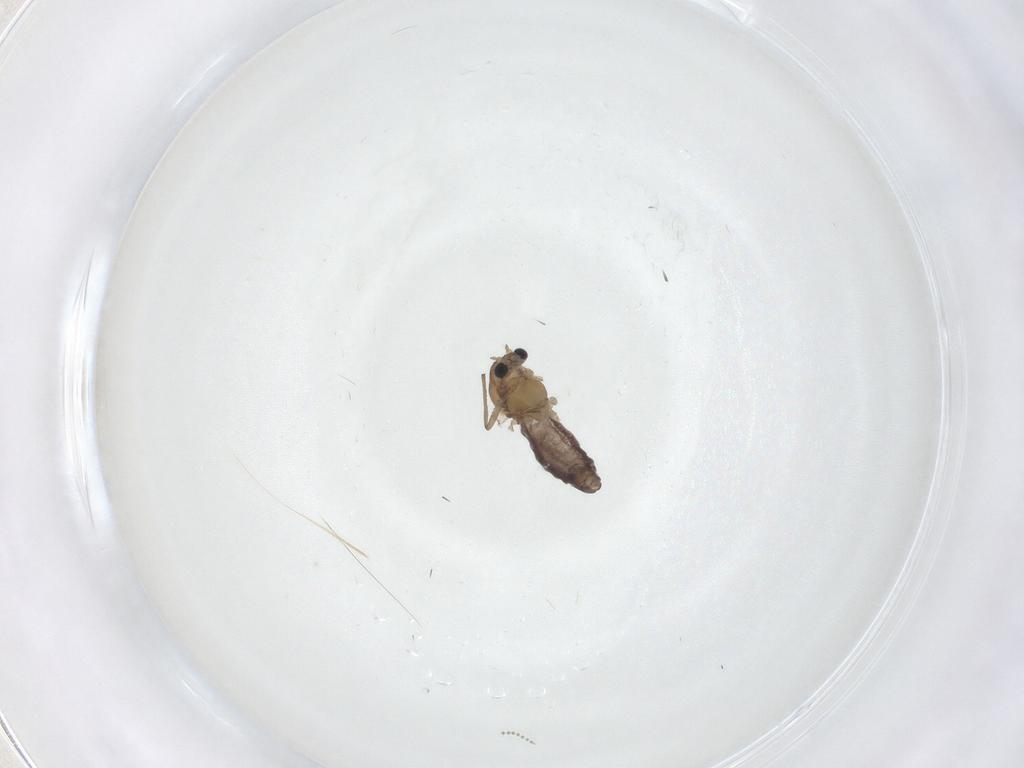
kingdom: Animalia
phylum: Arthropoda
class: Insecta
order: Diptera
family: Chironomidae
